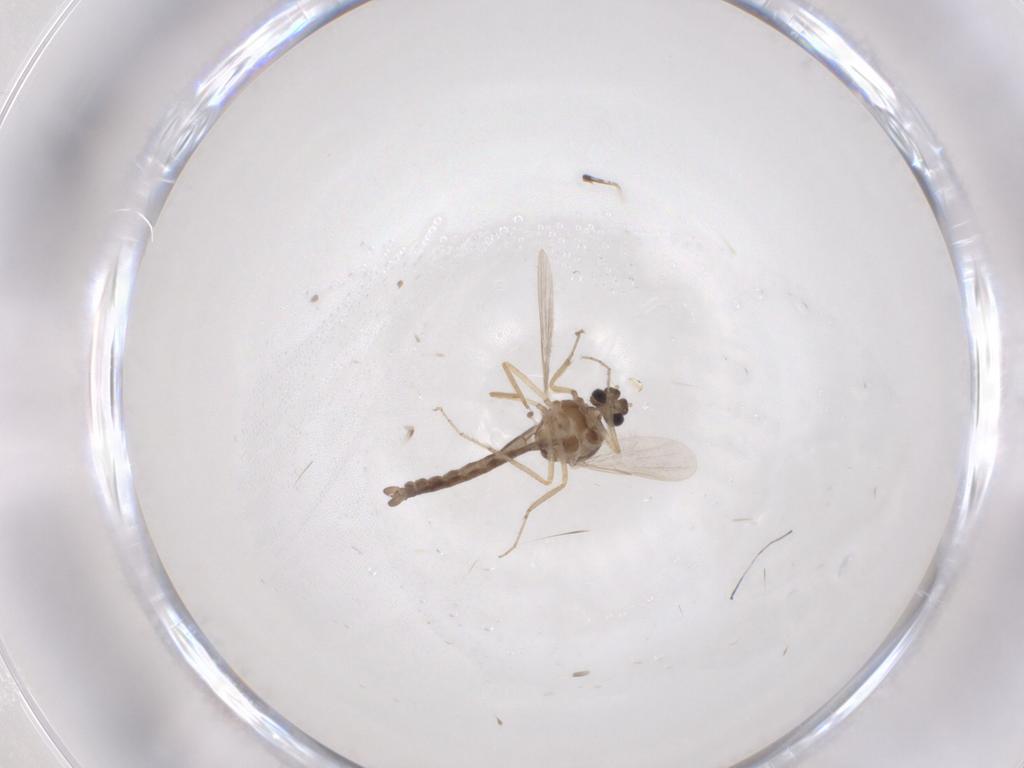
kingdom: Animalia
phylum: Arthropoda
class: Insecta
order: Diptera
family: Ceratopogonidae
